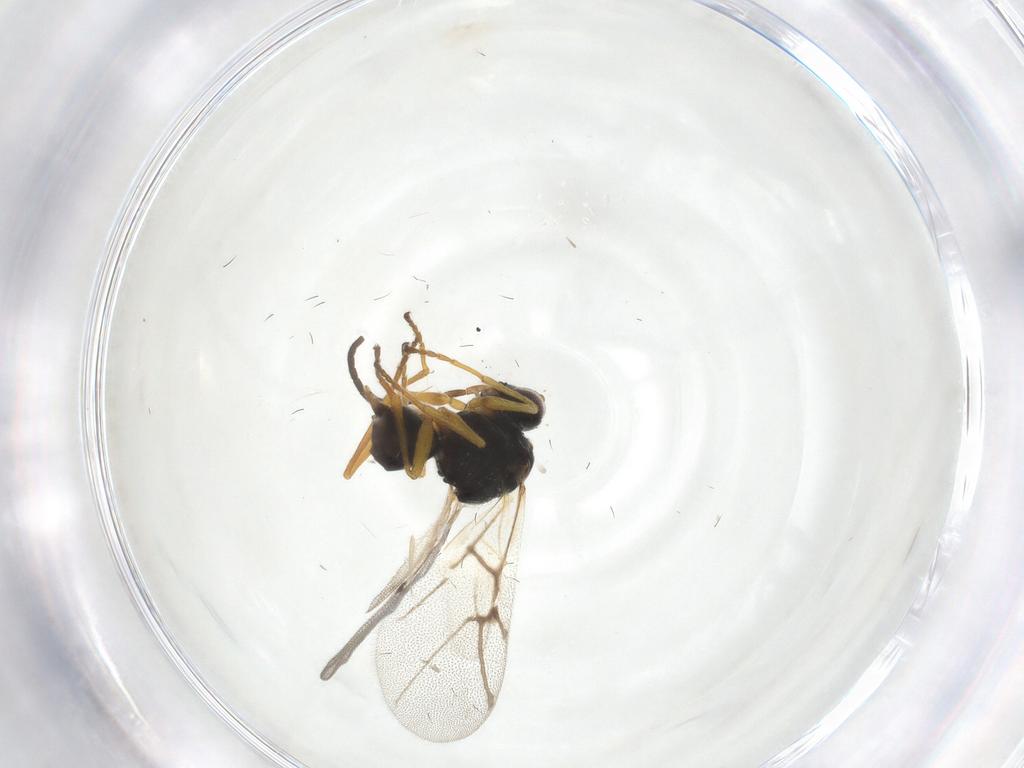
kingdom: Animalia
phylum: Arthropoda
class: Insecta
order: Hymenoptera
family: Cynipidae
